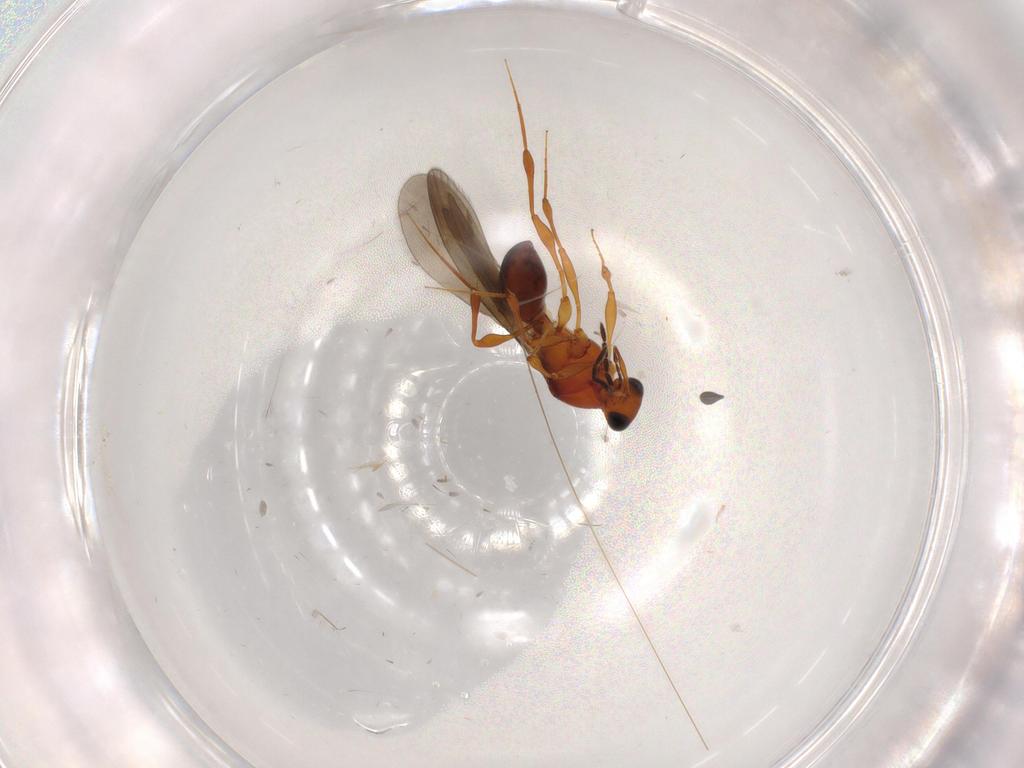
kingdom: Animalia
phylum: Arthropoda
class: Insecta
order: Hymenoptera
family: Platygastridae
